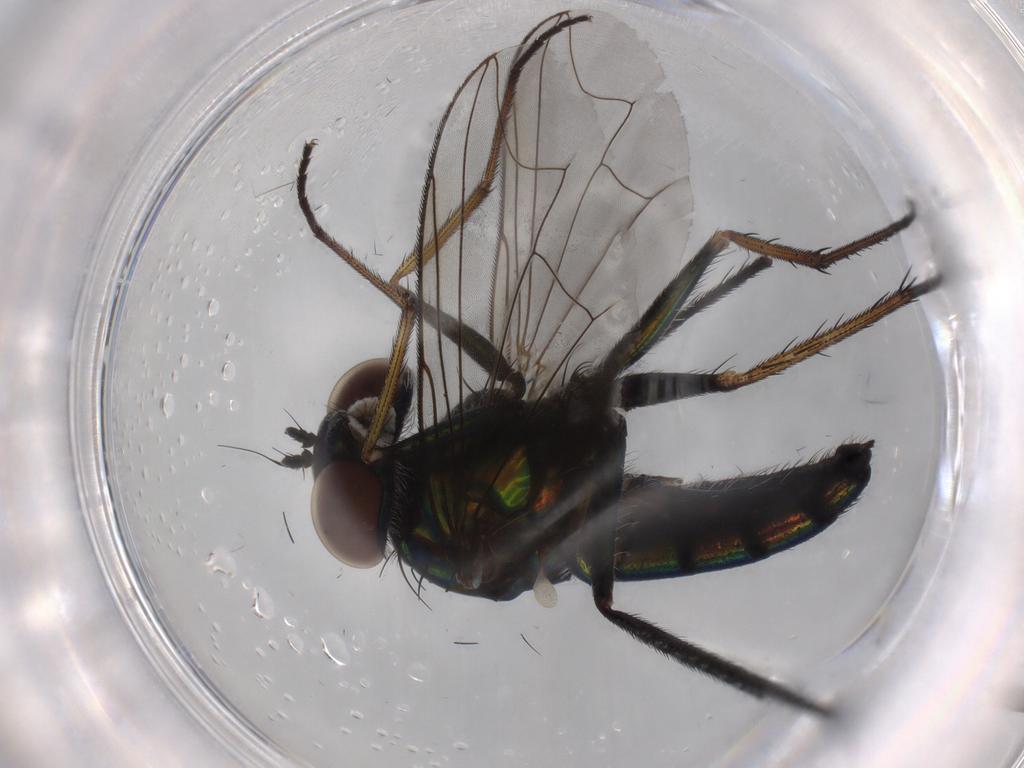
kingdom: Animalia
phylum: Arthropoda
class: Insecta
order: Diptera
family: Dolichopodidae
